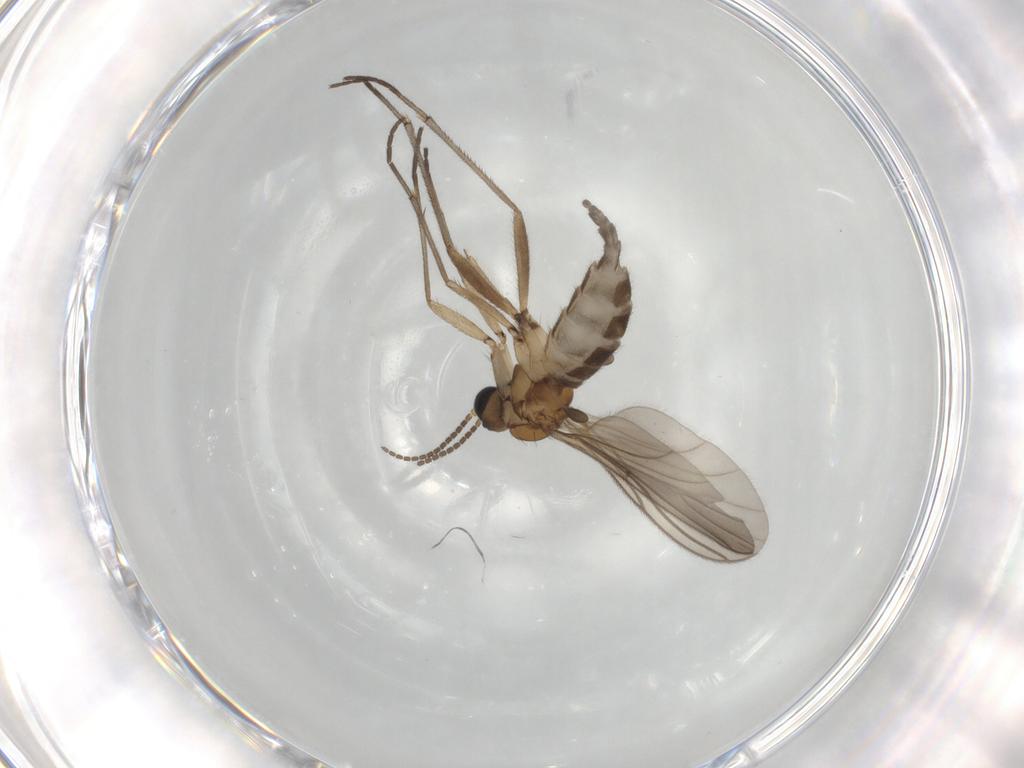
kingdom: Animalia
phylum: Arthropoda
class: Insecta
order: Diptera
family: Sciaridae
